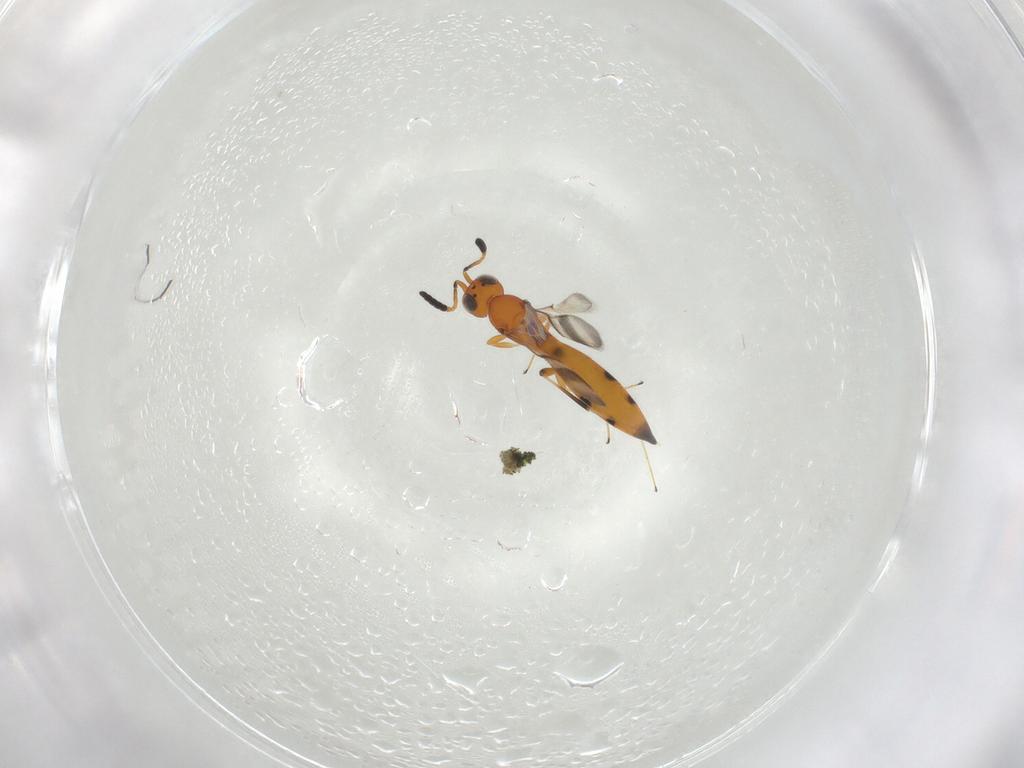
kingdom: Animalia
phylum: Arthropoda
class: Insecta
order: Hymenoptera
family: Scelionidae
